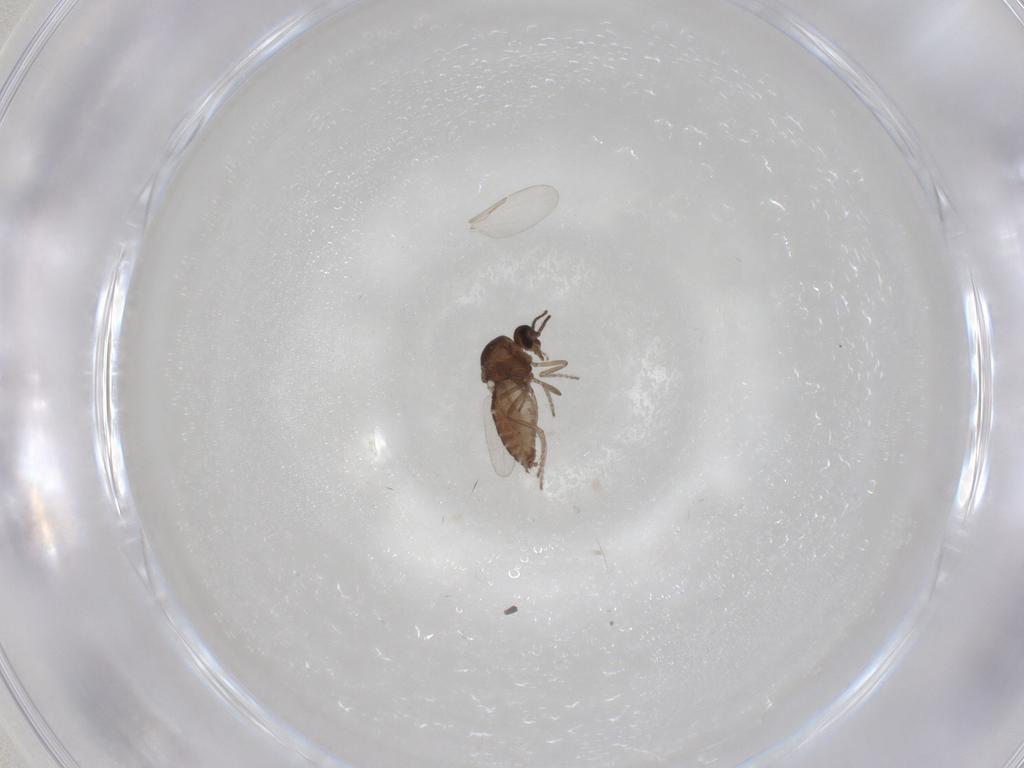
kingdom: Animalia
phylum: Arthropoda
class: Insecta
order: Diptera
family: Ceratopogonidae
